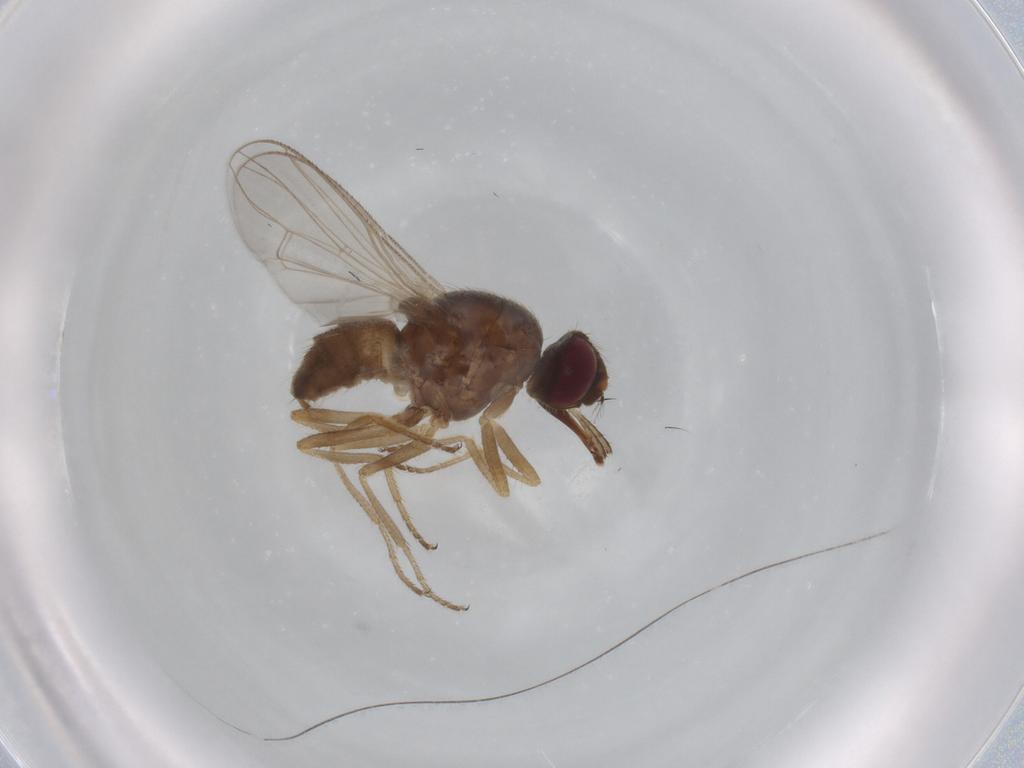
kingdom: Animalia
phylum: Arthropoda
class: Insecta
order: Diptera
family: Muscidae
